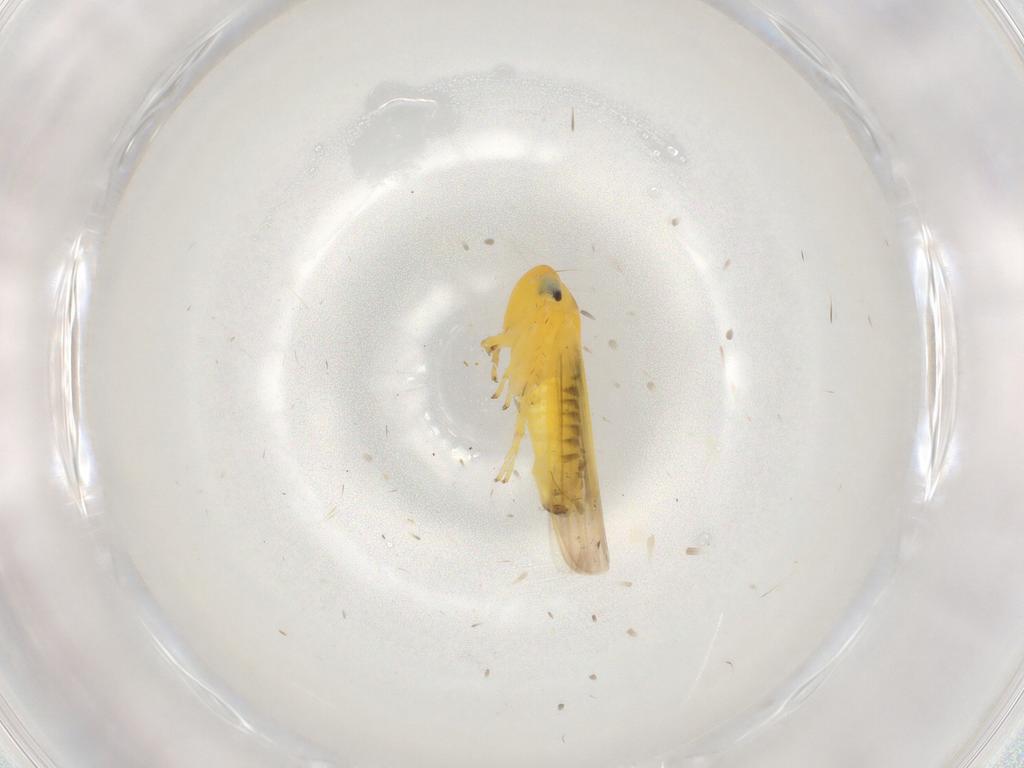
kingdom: Animalia
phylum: Arthropoda
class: Insecta
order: Hemiptera
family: Cicadellidae
